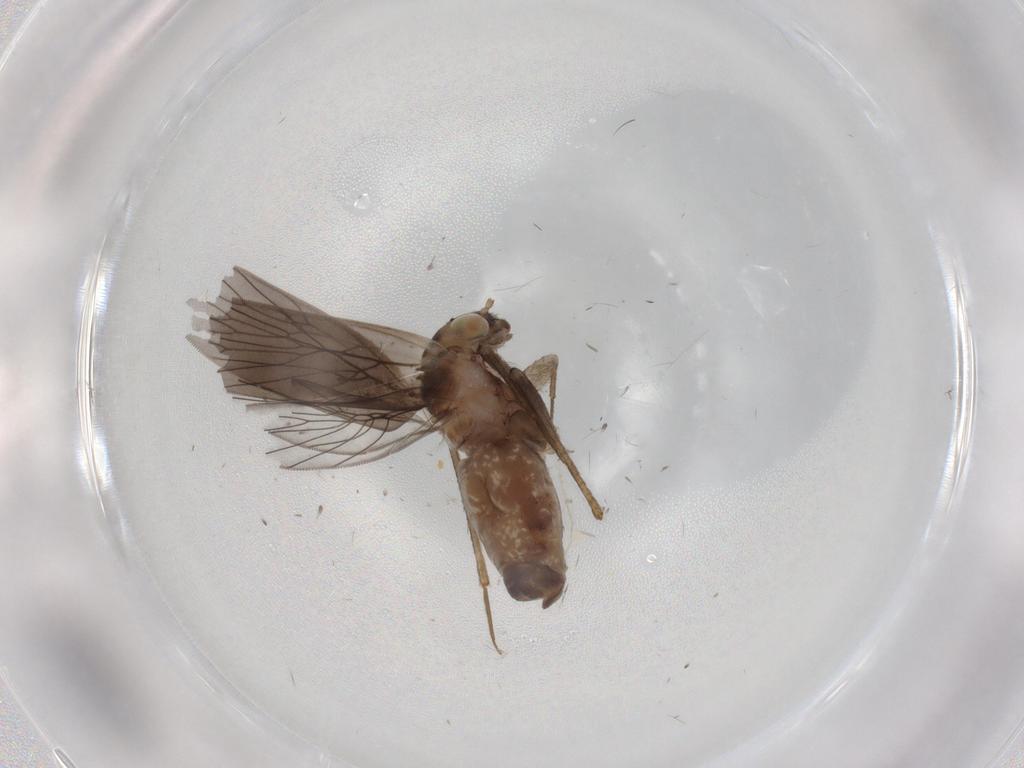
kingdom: Animalia
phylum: Arthropoda
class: Insecta
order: Psocodea
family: Lepidopsocidae
